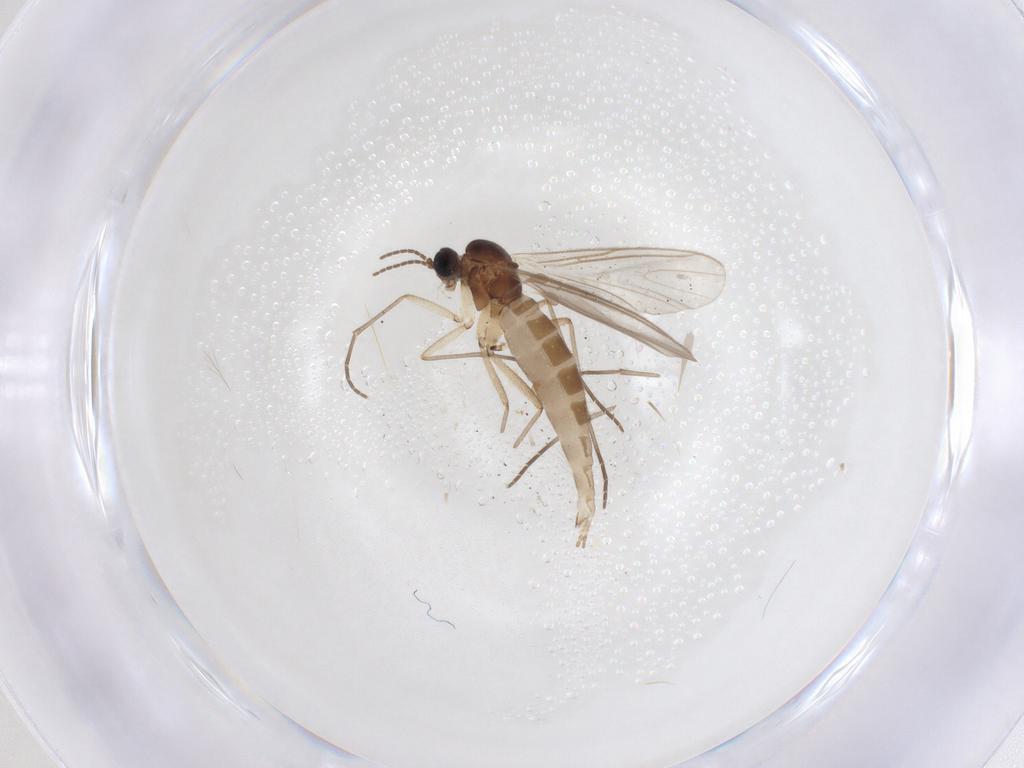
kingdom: Animalia
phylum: Arthropoda
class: Insecta
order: Diptera
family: Sciaridae
